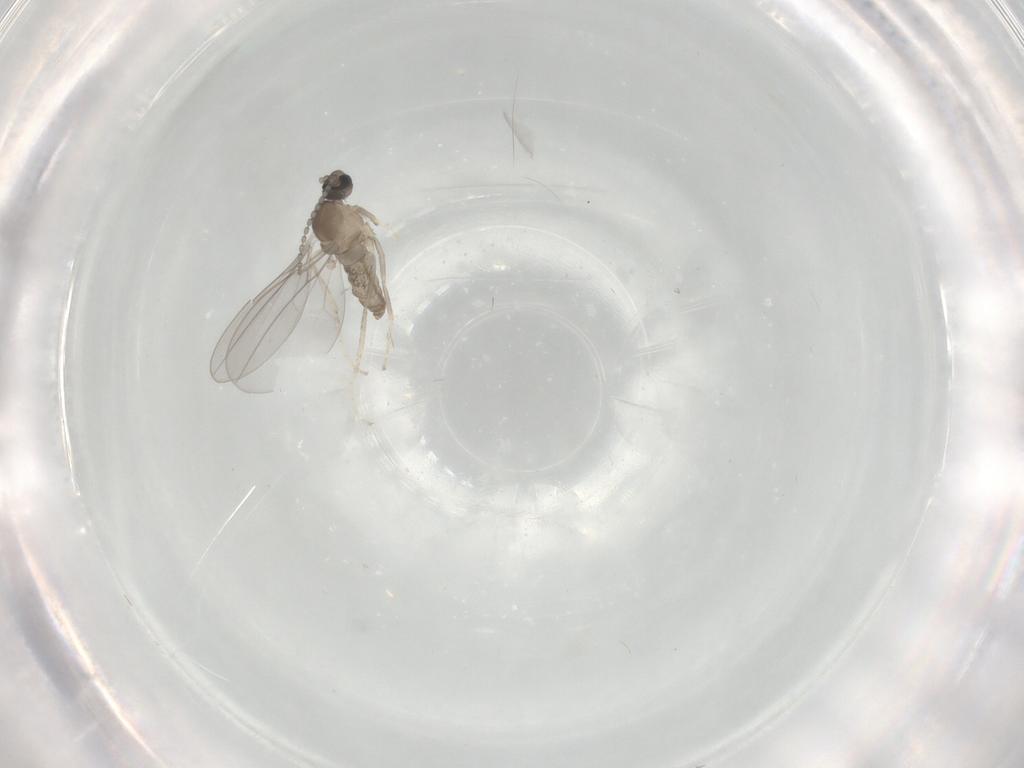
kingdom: Animalia
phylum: Arthropoda
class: Insecta
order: Diptera
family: Cecidomyiidae
